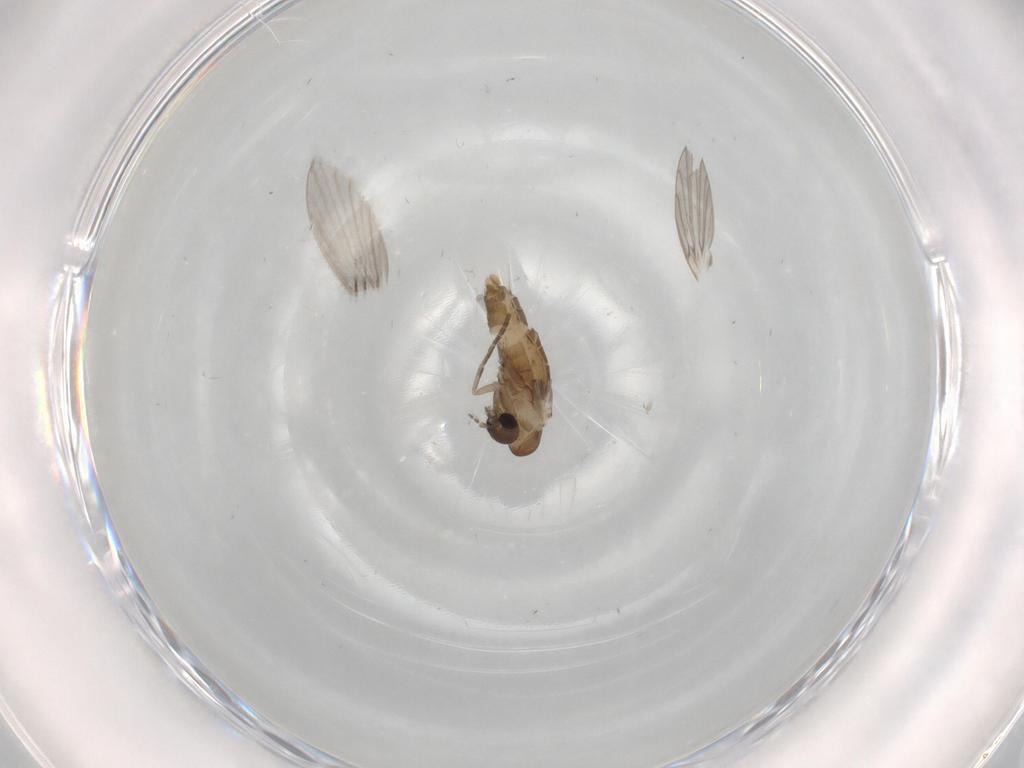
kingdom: Animalia
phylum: Arthropoda
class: Insecta
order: Diptera
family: Psychodidae
